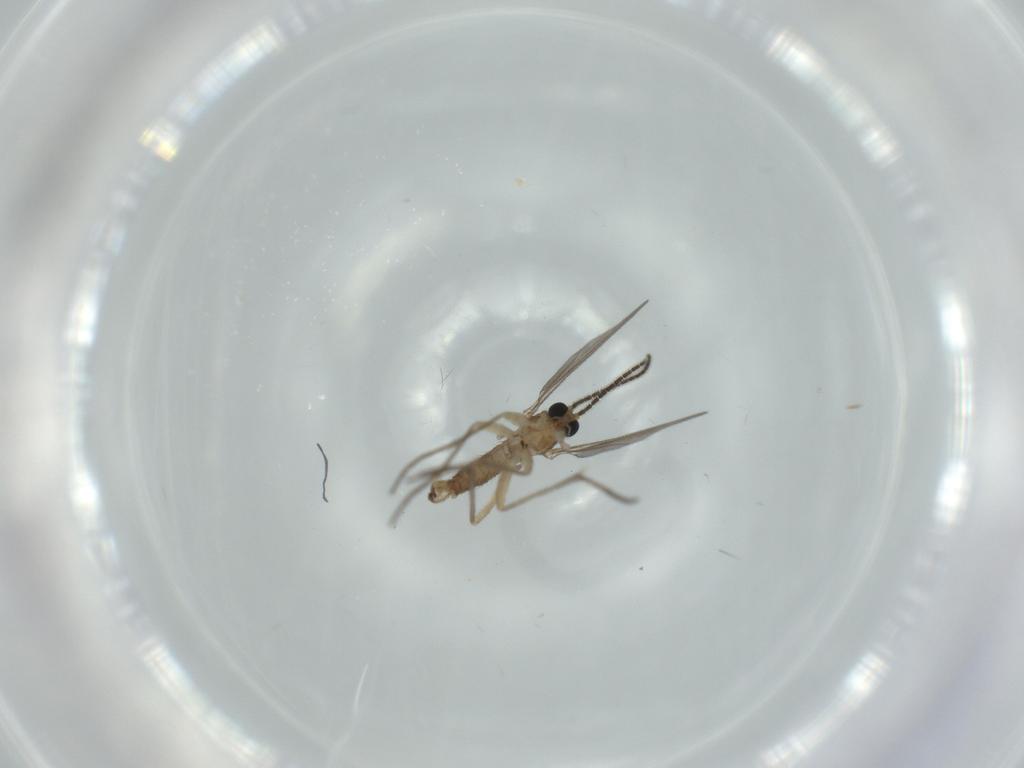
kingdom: Animalia
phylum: Arthropoda
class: Insecta
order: Diptera
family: Sciaridae
